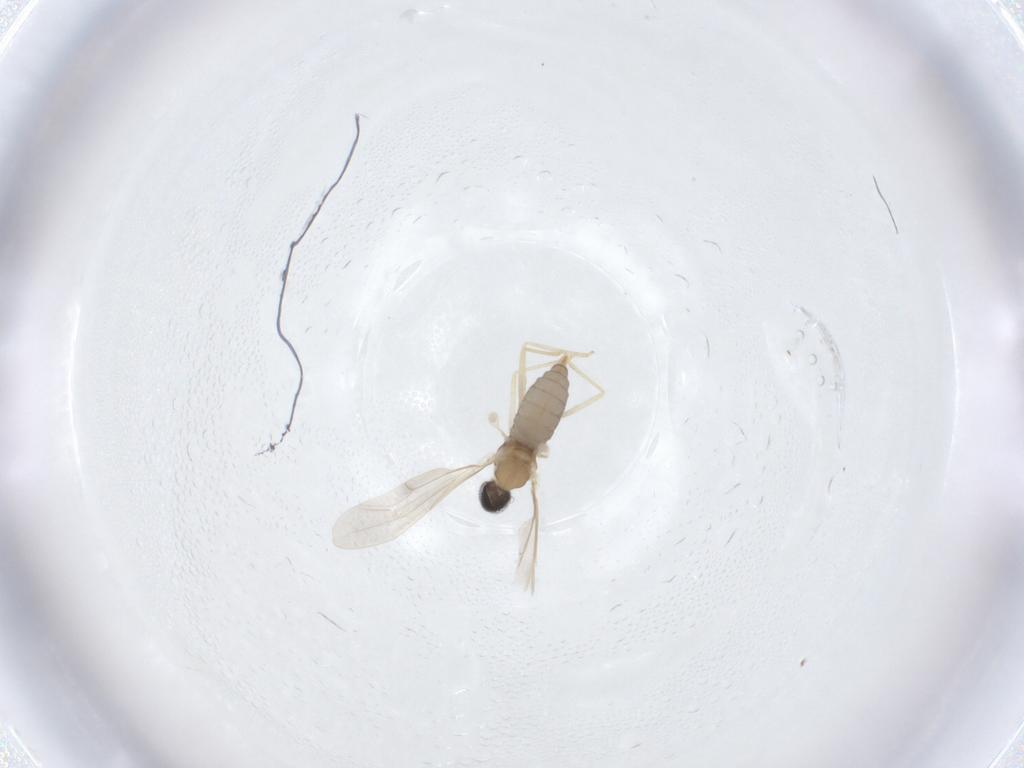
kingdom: Animalia
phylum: Arthropoda
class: Insecta
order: Diptera
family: Cecidomyiidae
